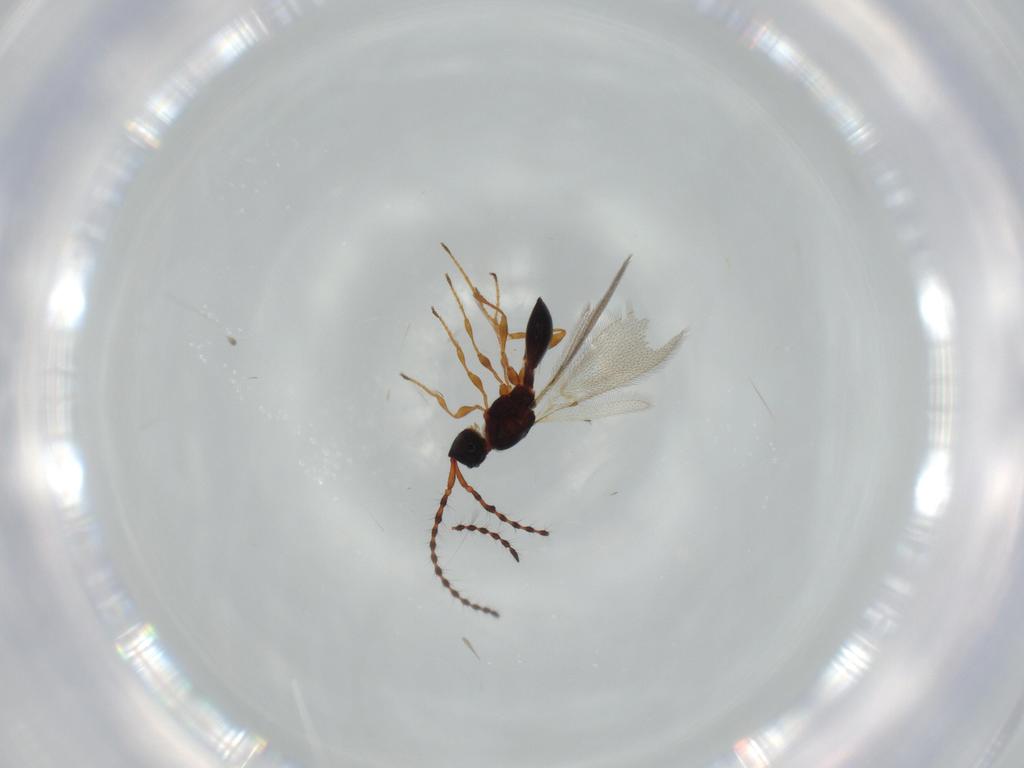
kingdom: Animalia
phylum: Arthropoda
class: Insecta
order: Hymenoptera
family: Diapriidae
